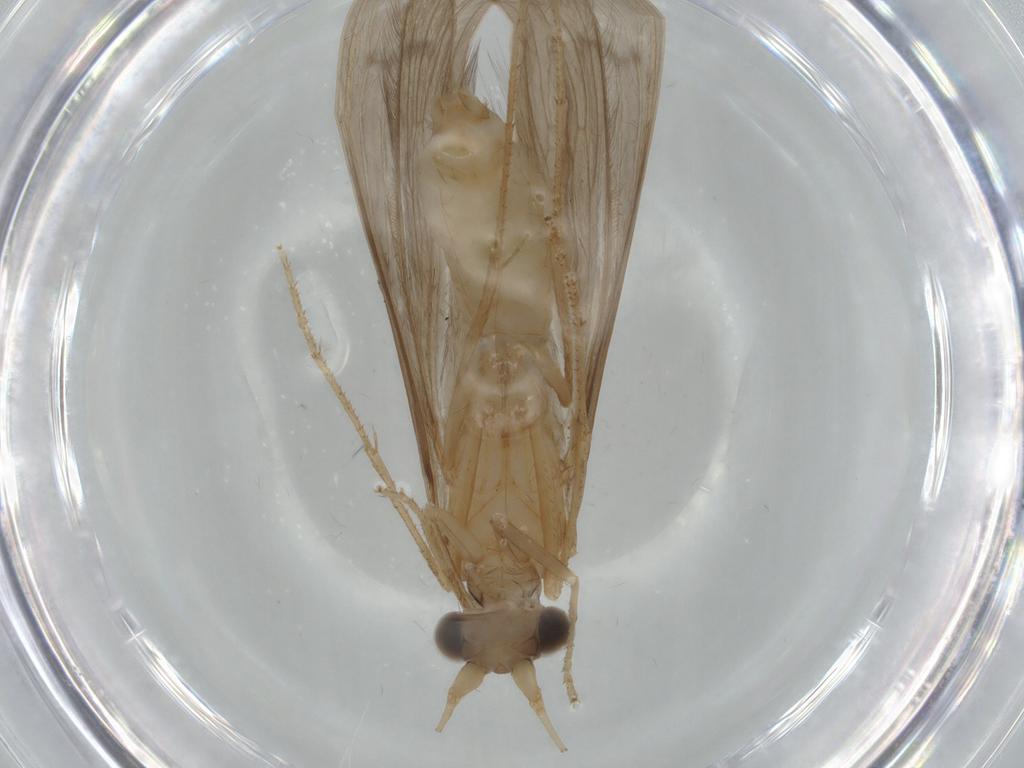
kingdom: Animalia
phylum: Arthropoda
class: Insecta
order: Trichoptera
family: Leptoceridae
